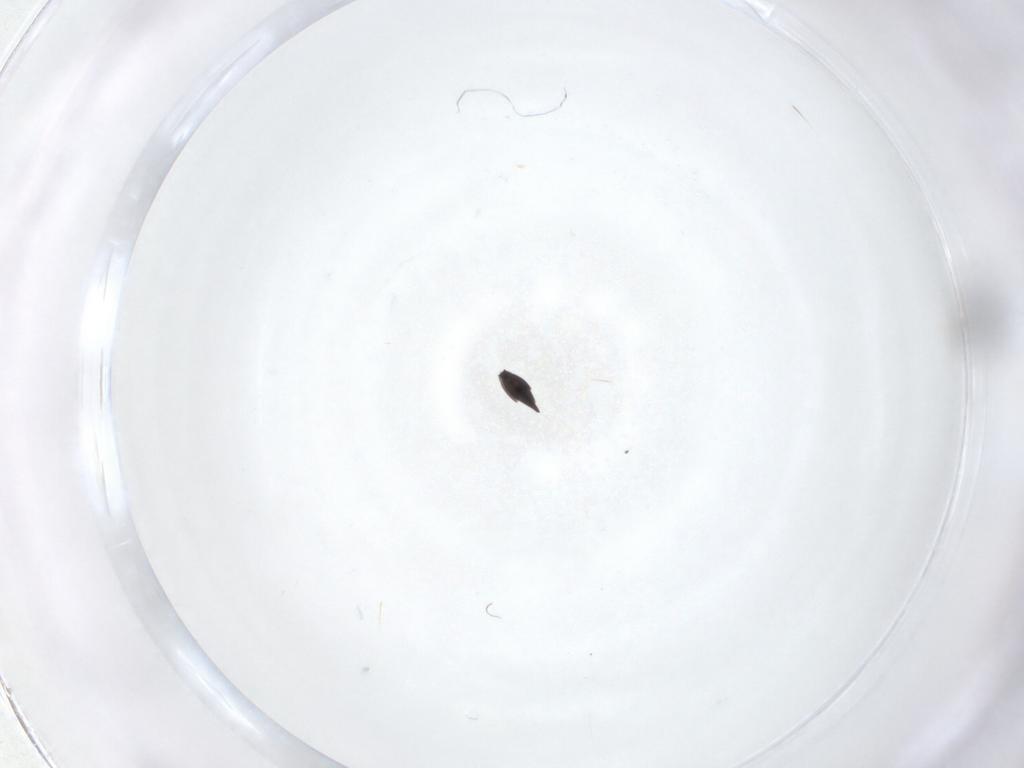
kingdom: Animalia
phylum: Arthropoda
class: Insecta
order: Hymenoptera
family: Scelionidae
